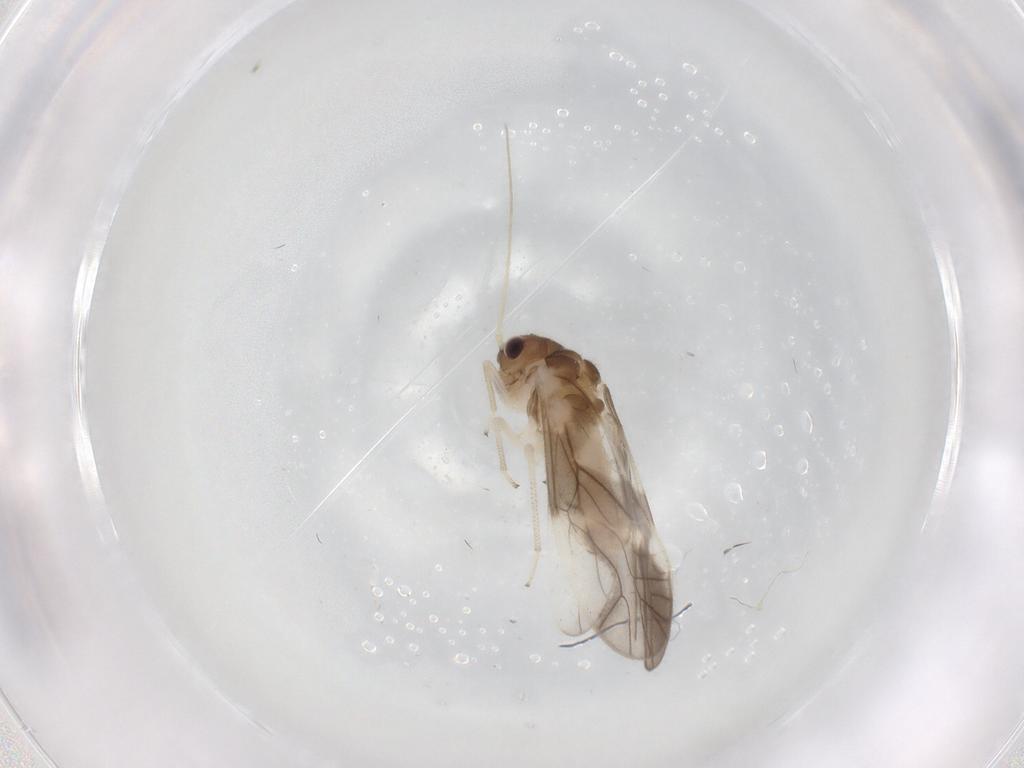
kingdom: Animalia
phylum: Arthropoda
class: Insecta
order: Psocodea
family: Caeciliusidae
